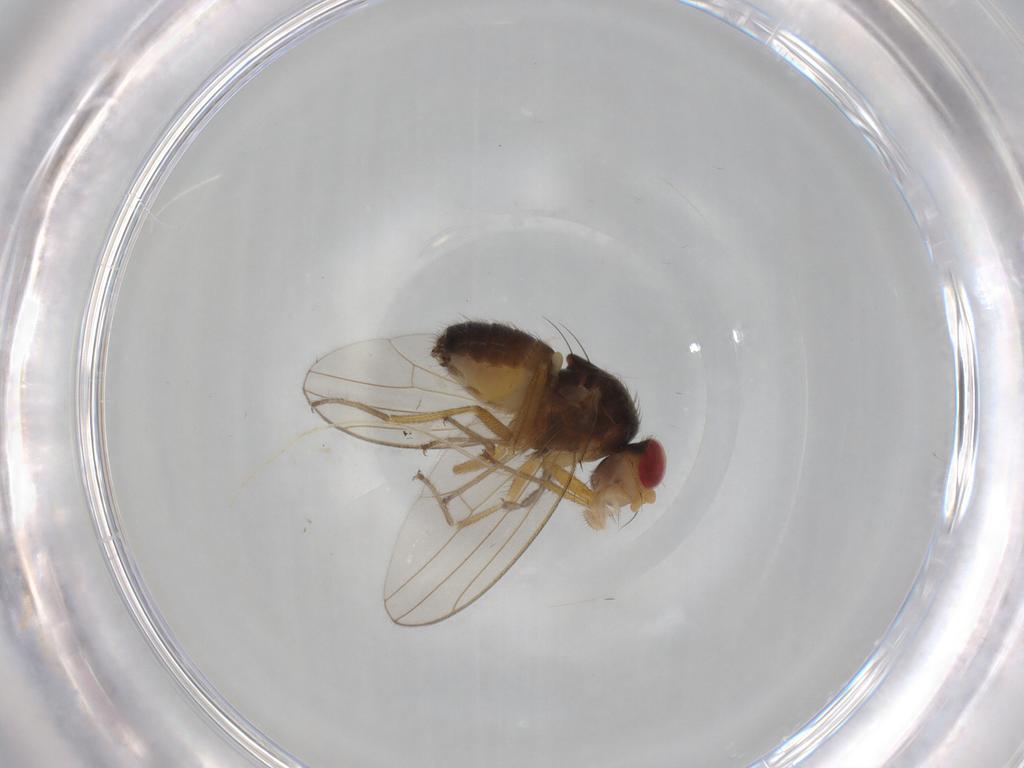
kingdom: Animalia
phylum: Arthropoda
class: Insecta
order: Diptera
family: Drosophilidae
